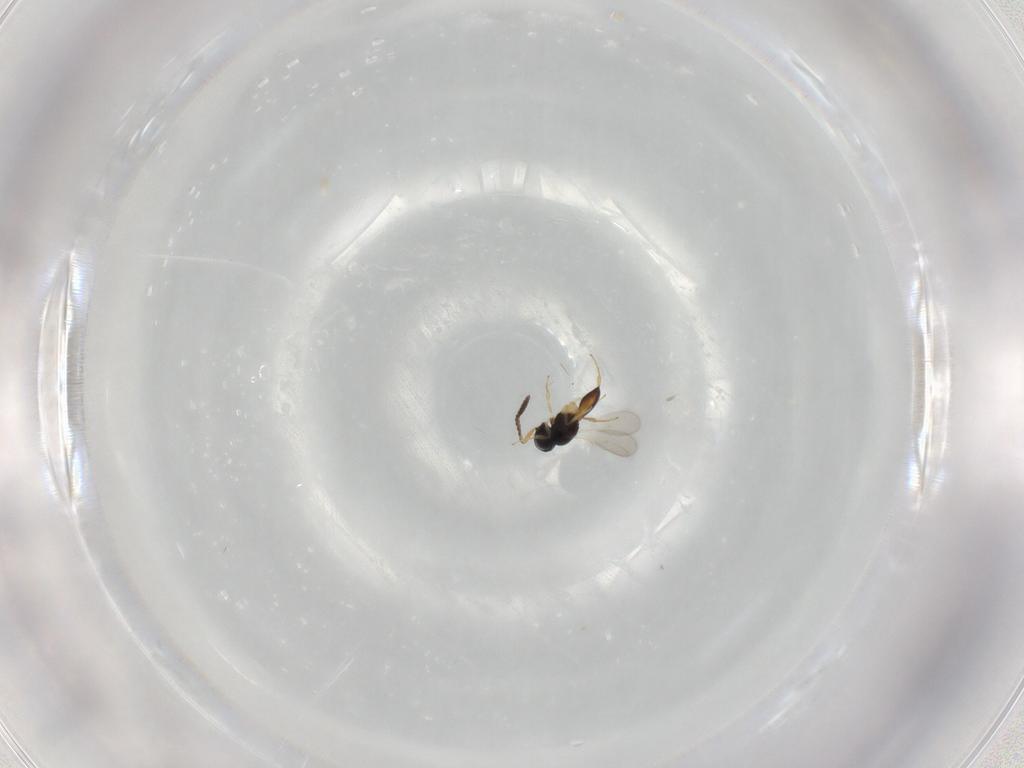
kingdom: Animalia
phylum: Arthropoda
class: Insecta
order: Hymenoptera
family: Scelionidae
